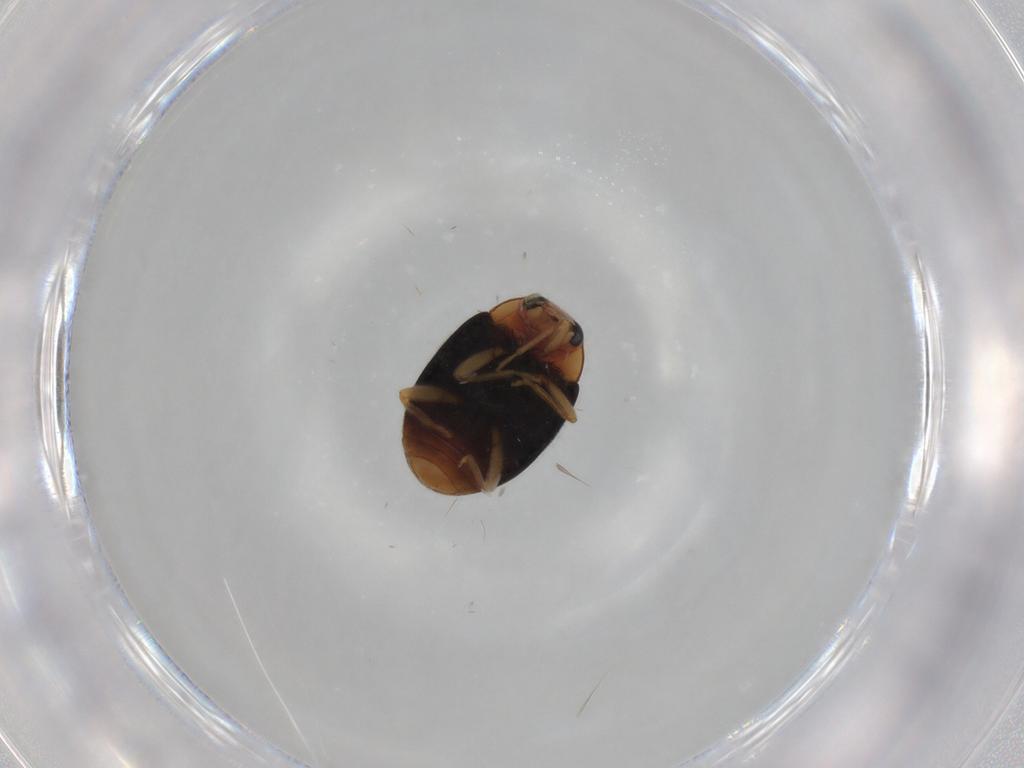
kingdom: Animalia
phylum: Arthropoda
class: Insecta
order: Coleoptera
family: Coccinellidae
